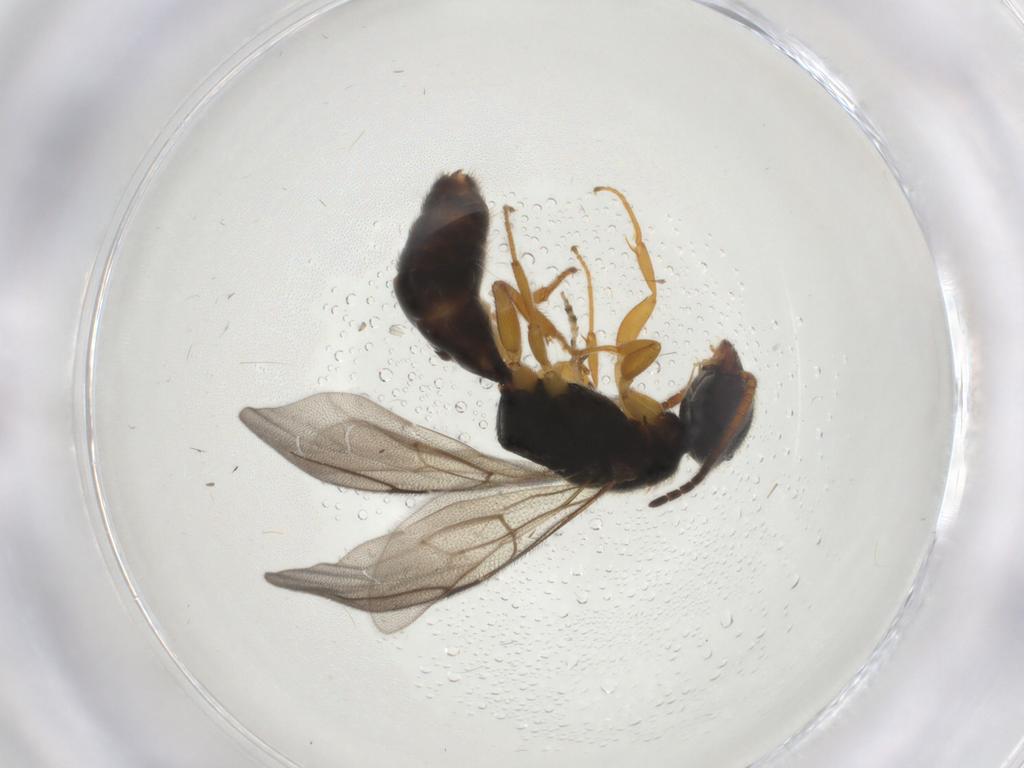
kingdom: Animalia
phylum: Arthropoda
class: Insecta
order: Hymenoptera
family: Bethylidae
